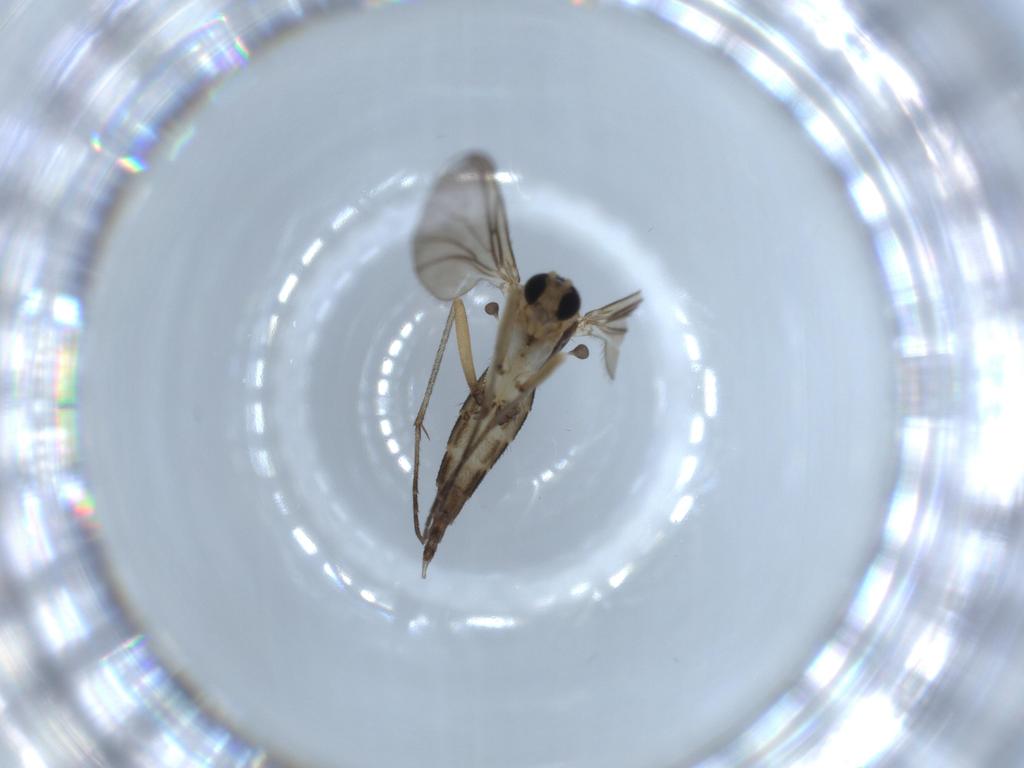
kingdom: Animalia
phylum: Arthropoda
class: Insecta
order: Diptera
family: Sciaridae
